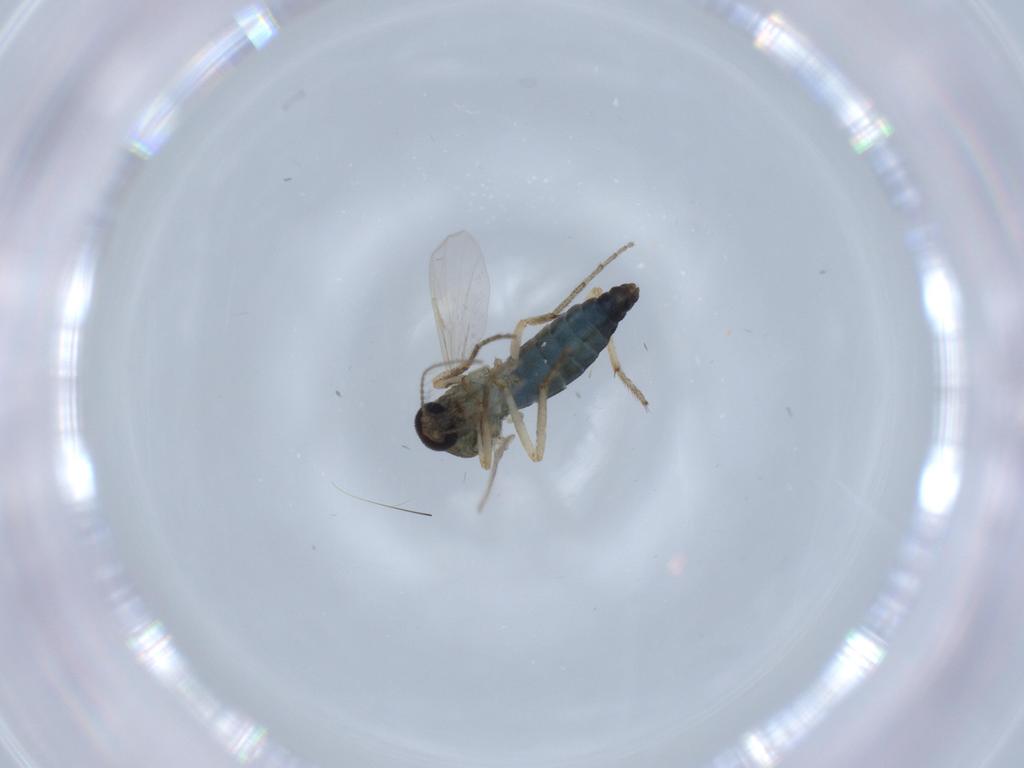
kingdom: Animalia
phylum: Arthropoda
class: Insecta
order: Diptera
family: Ceratopogonidae
